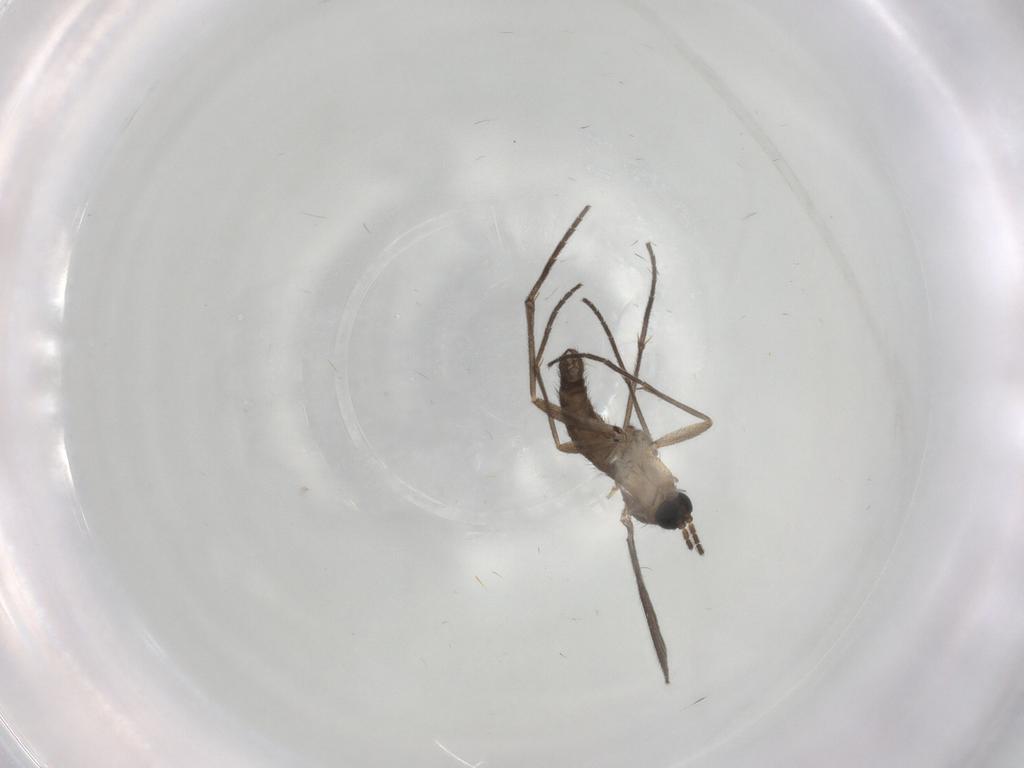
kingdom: Animalia
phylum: Arthropoda
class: Insecta
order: Diptera
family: Sciaridae
